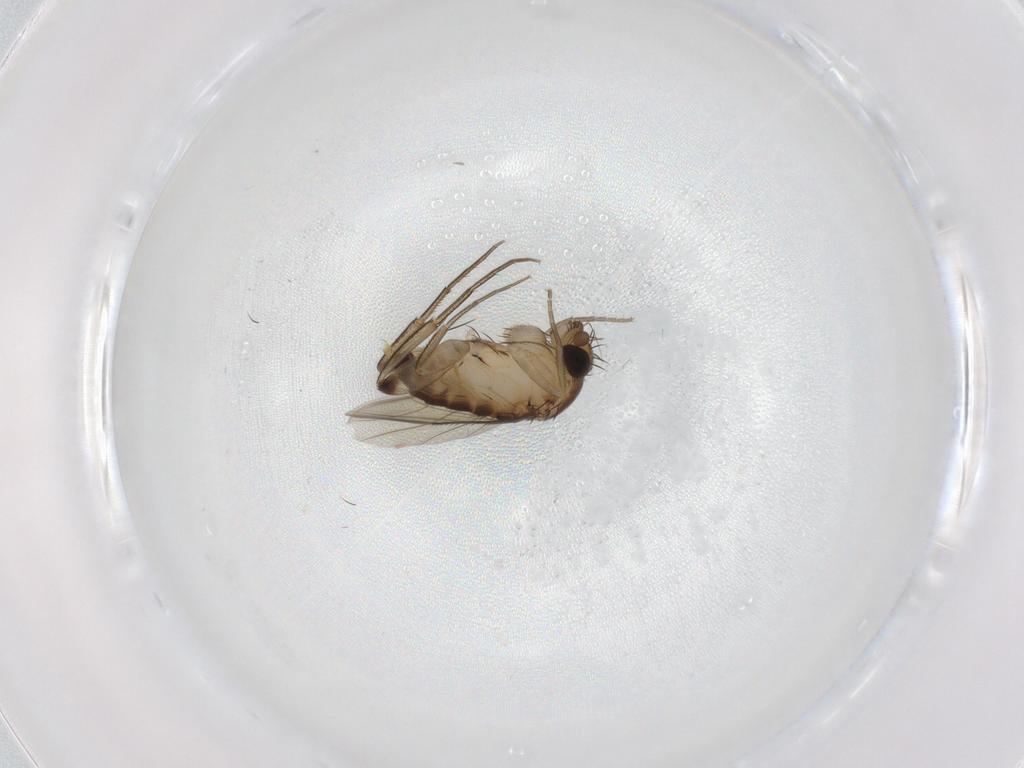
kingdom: Animalia
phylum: Arthropoda
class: Insecta
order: Diptera
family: Phoridae
